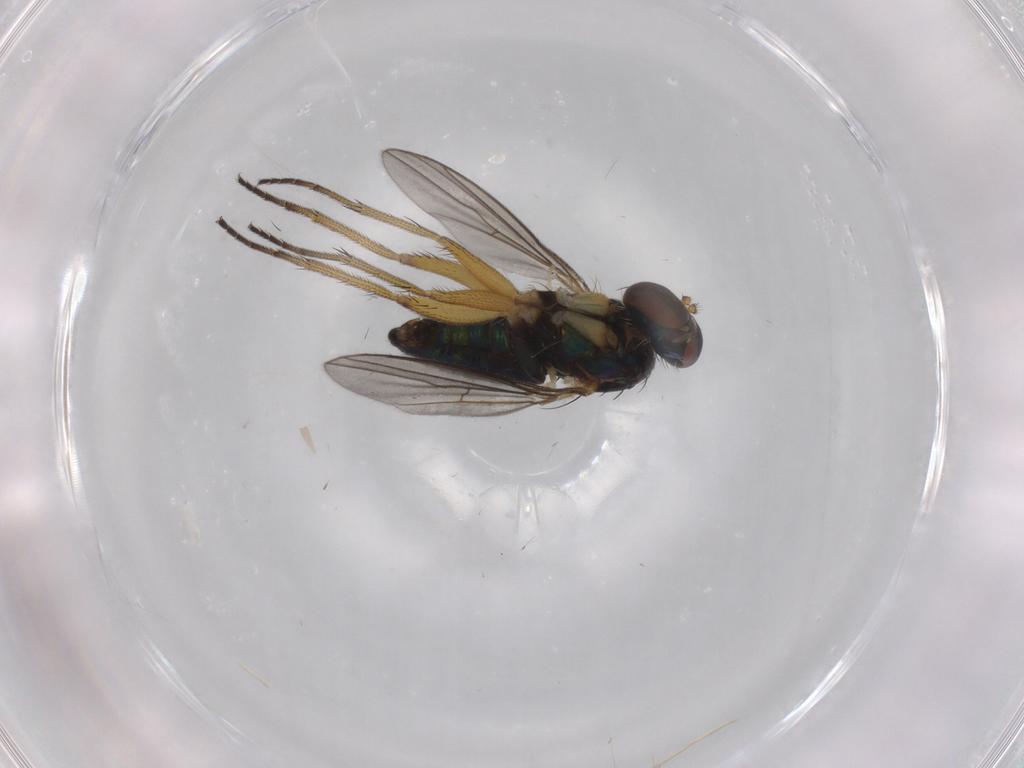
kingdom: Animalia
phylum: Arthropoda
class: Insecta
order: Diptera
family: Dolichopodidae
